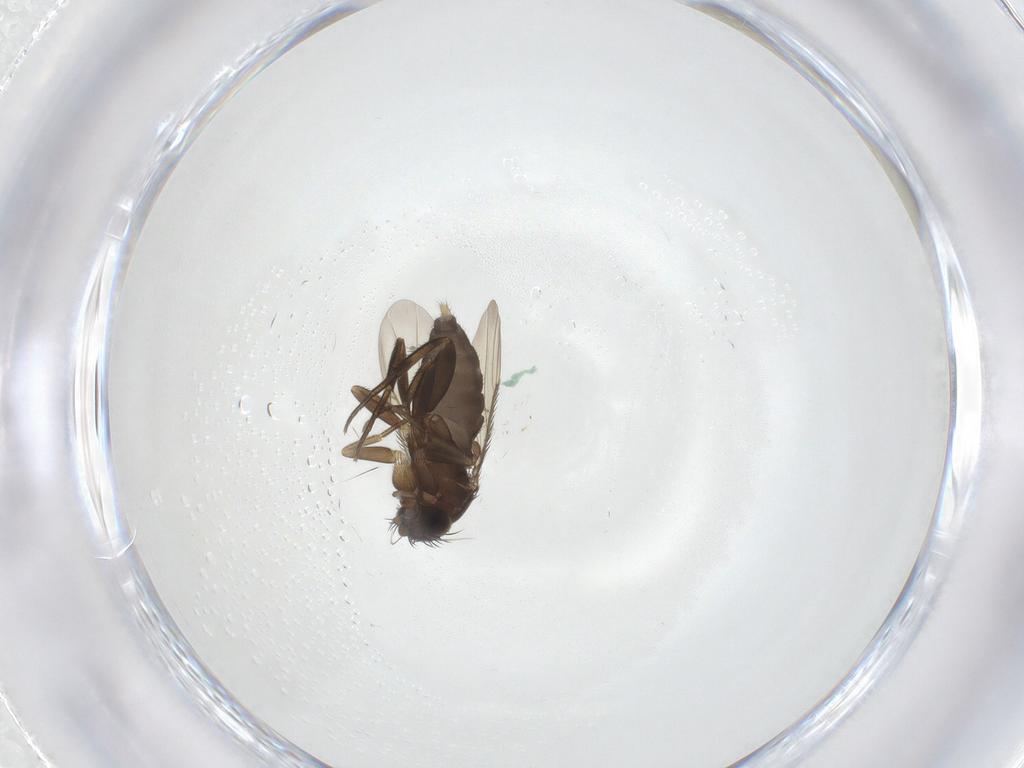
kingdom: Animalia
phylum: Arthropoda
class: Insecta
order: Diptera
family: Phoridae
